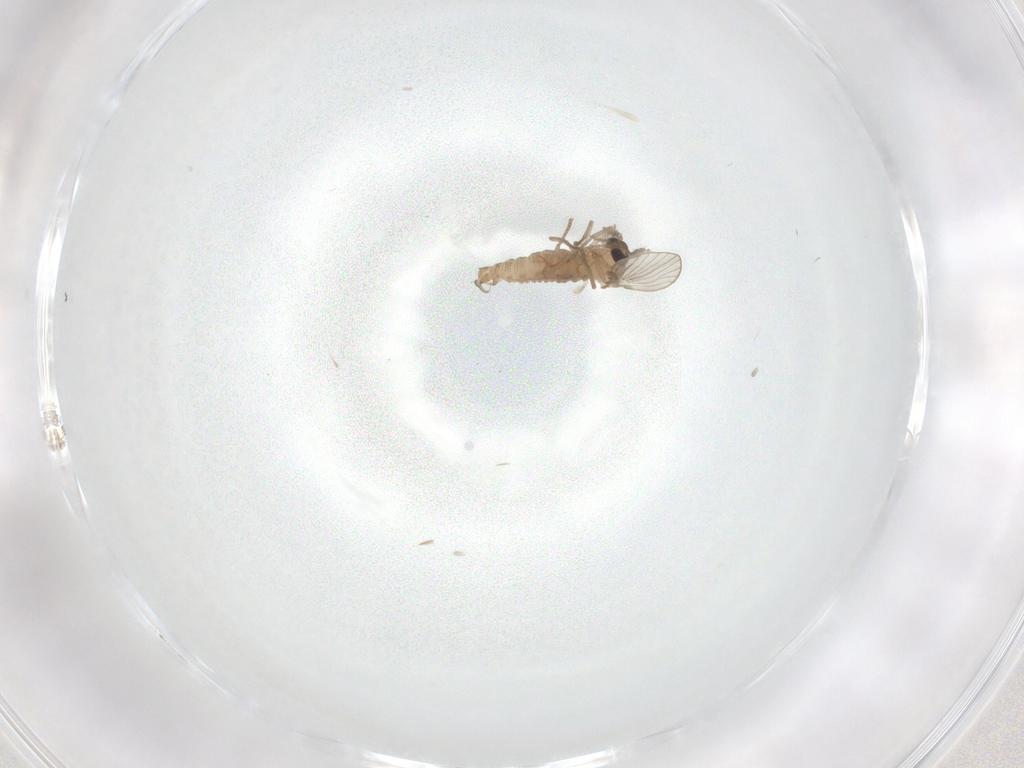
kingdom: Animalia
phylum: Arthropoda
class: Insecta
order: Diptera
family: Psychodidae
